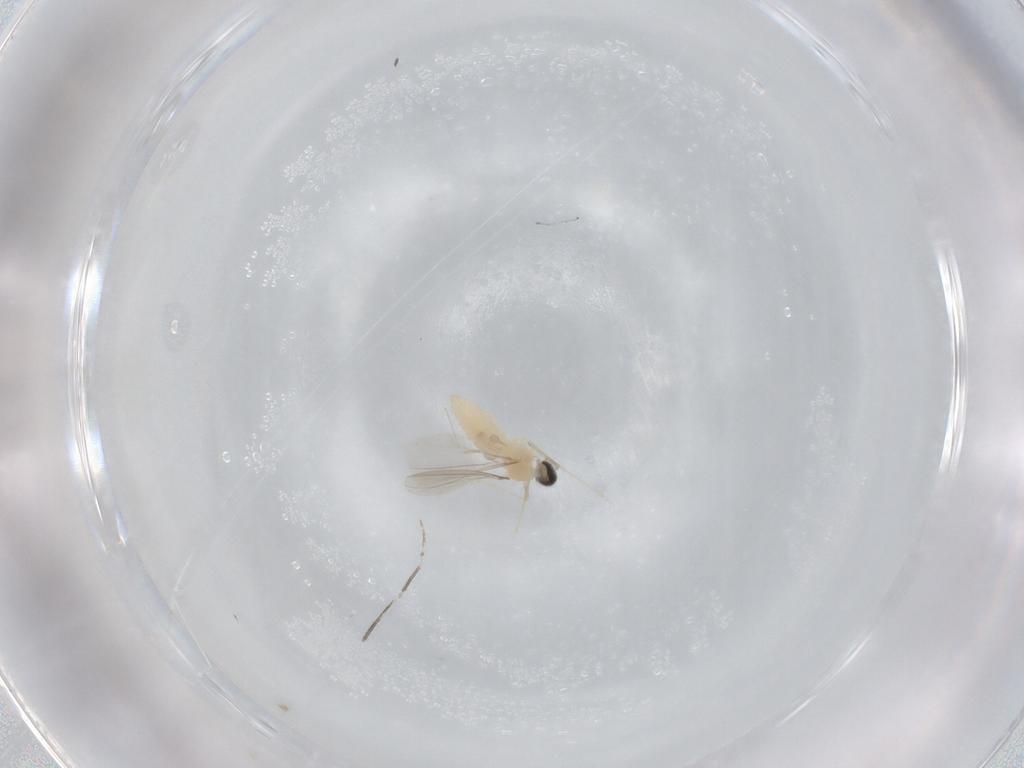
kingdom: Animalia
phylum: Arthropoda
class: Insecta
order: Diptera
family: Cecidomyiidae
